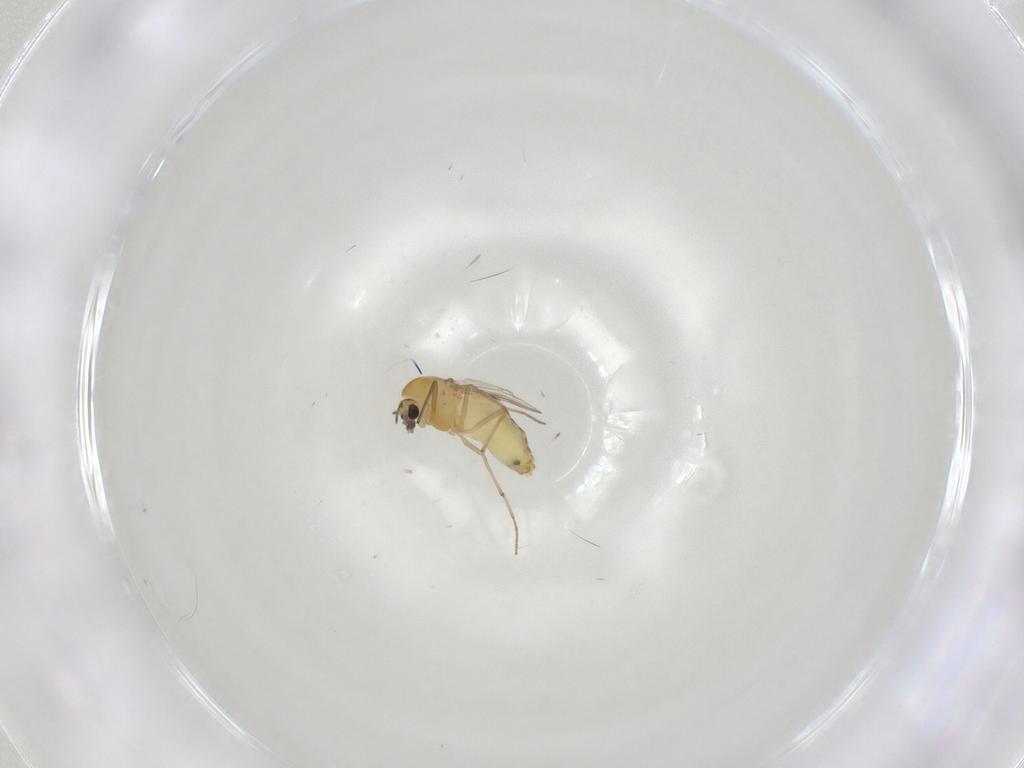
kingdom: Animalia
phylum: Arthropoda
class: Insecta
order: Diptera
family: Chironomidae
